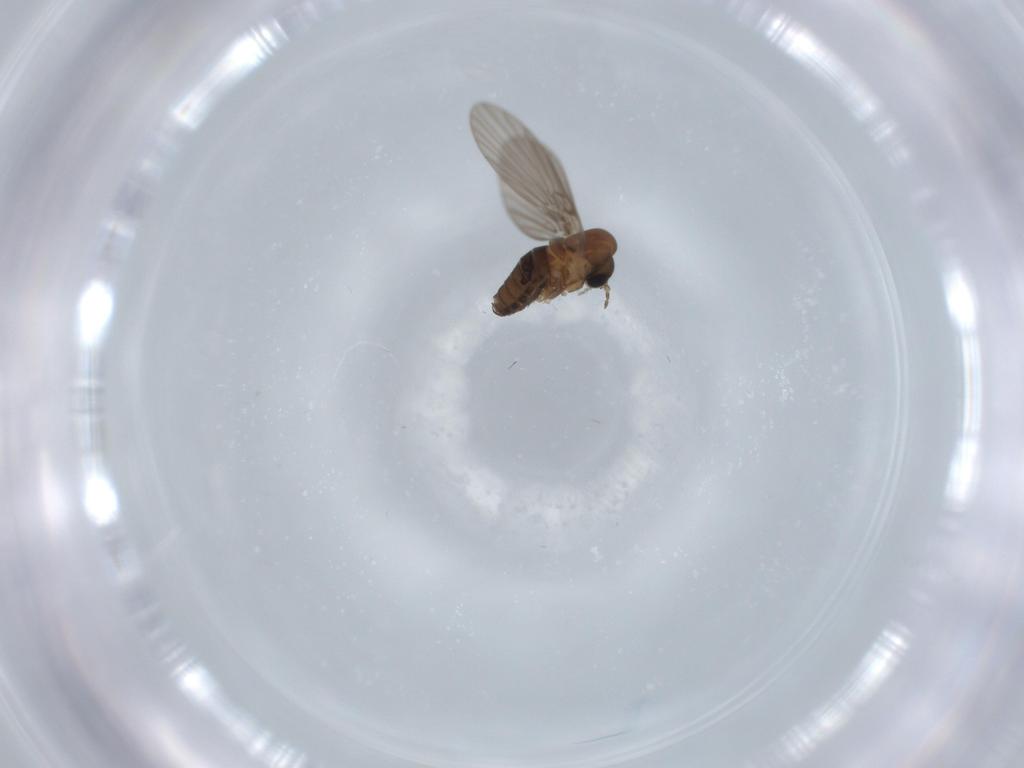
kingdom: Animalia
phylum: Arthropoda
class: Insecta
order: Diptera
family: Psychodidae
